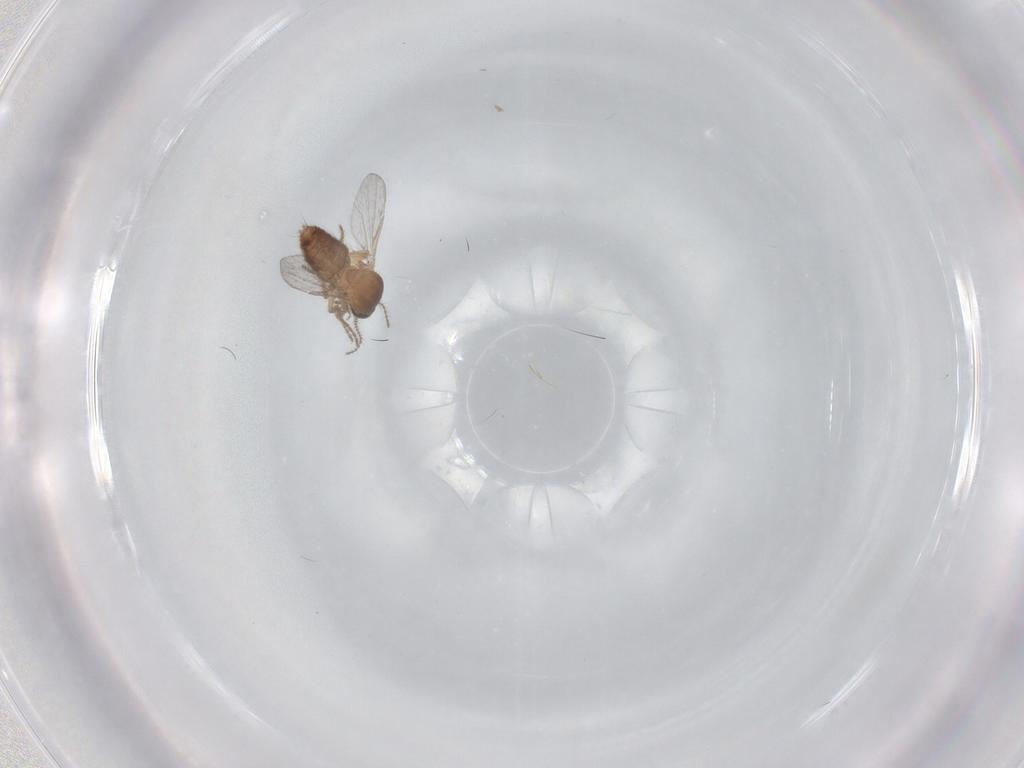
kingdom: Animalia
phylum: Arthropoda
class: Insecta
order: Diptera
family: Ceratopogonidae
